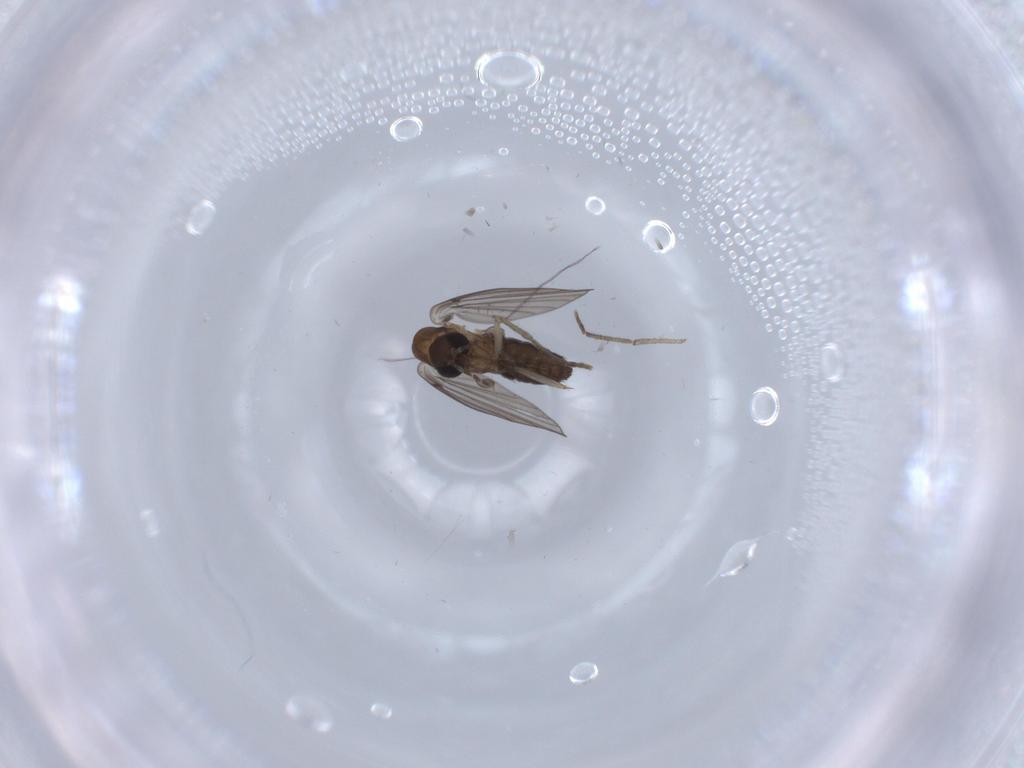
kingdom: Animalia
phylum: Arthropoda
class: Insecta
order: Diptera
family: Psychodidae
